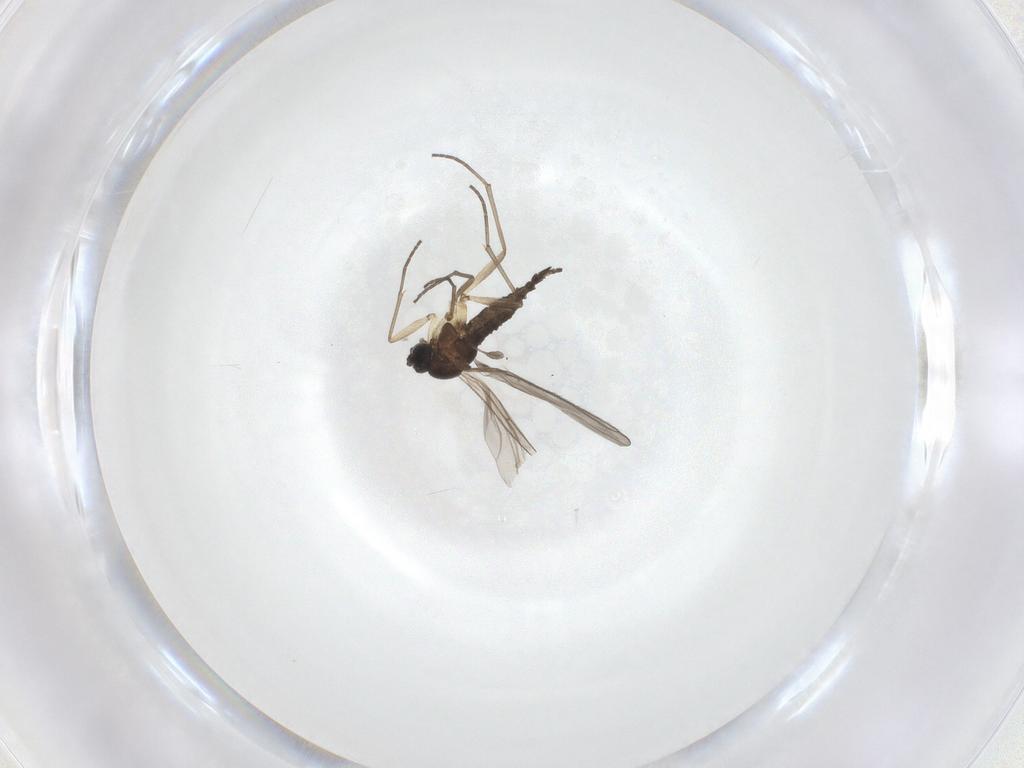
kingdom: Animalia
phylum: Arthropoda
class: Insecta
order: Diptera
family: Sciaridae
